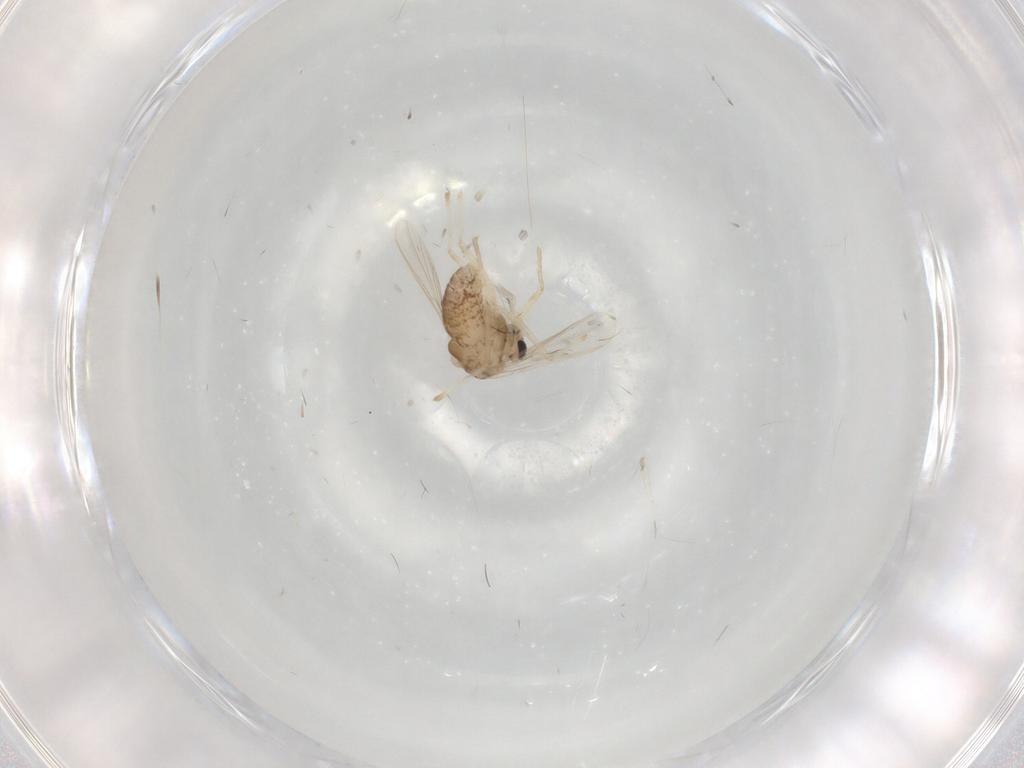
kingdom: Animalia
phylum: Arthropoda
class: Insecta
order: Diptera
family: Chironomidae
